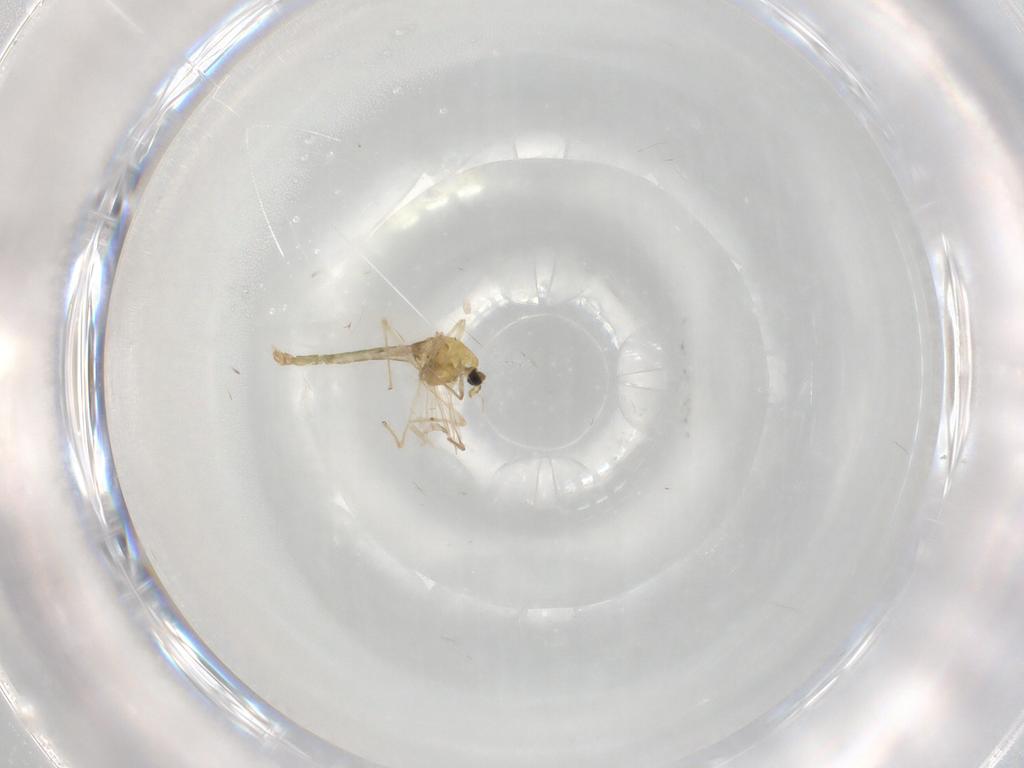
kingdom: Animalia
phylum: Arthropoda
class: Insecta
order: Diptera
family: Chironomidae
